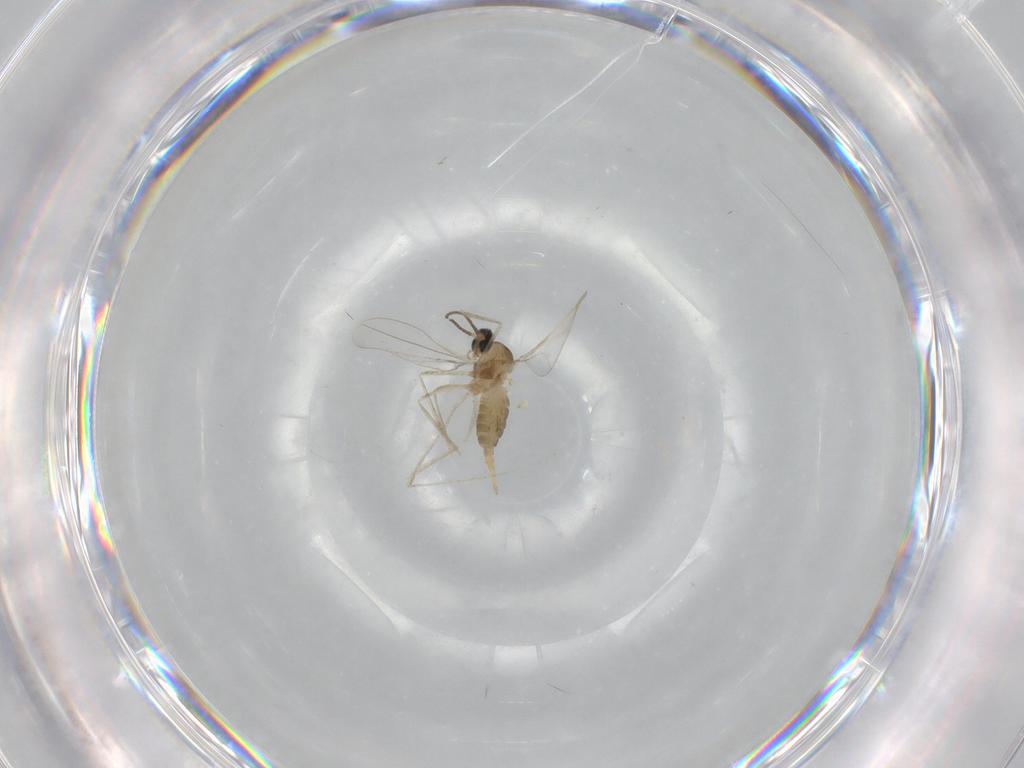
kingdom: Animalia
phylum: Arthropoda
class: Insecta
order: Diptera
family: Cecidomyiidae
